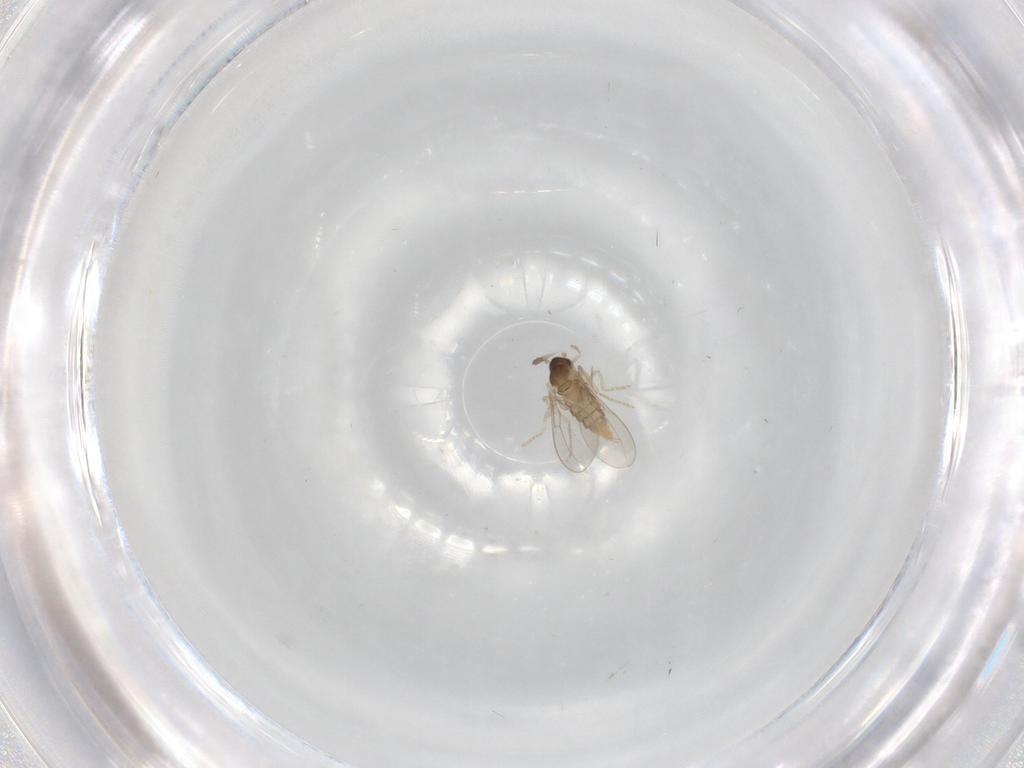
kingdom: Animalia
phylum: Arthropoda
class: Insecta
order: Diptera
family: Cecidomyiidae
